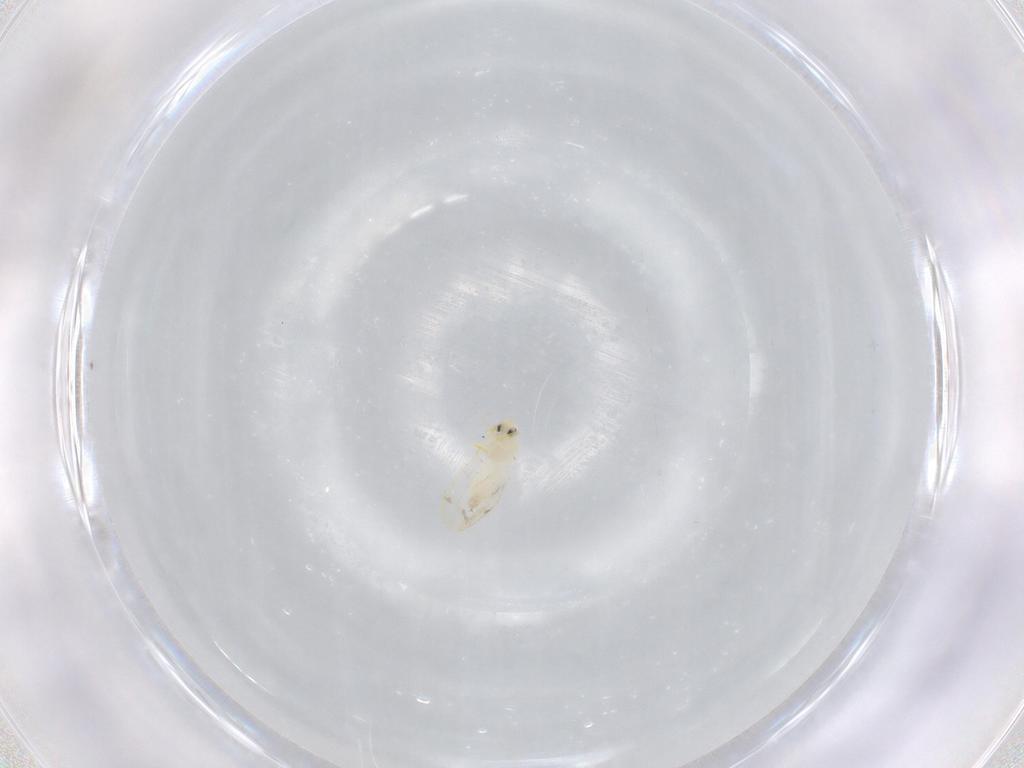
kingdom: Animalia
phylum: Arthropoda
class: Insecta
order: Hemiptera
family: Aleyrodidae
